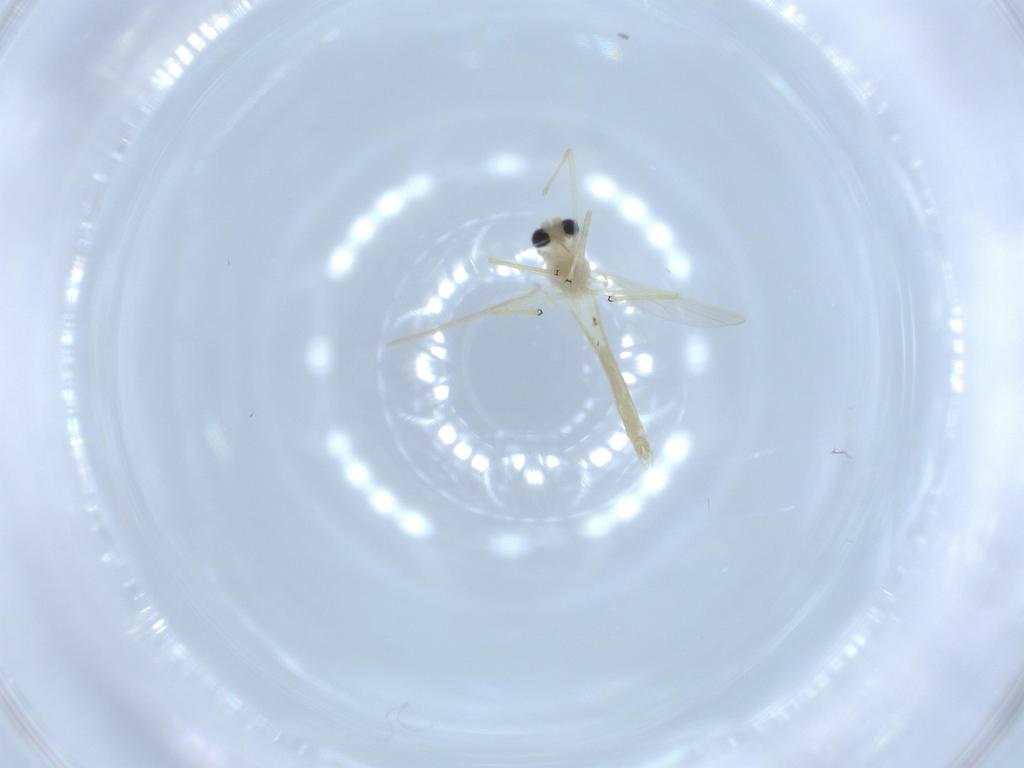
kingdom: Animalia
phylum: Arthropoda
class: Insecta
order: Diptera
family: Chironomidae
